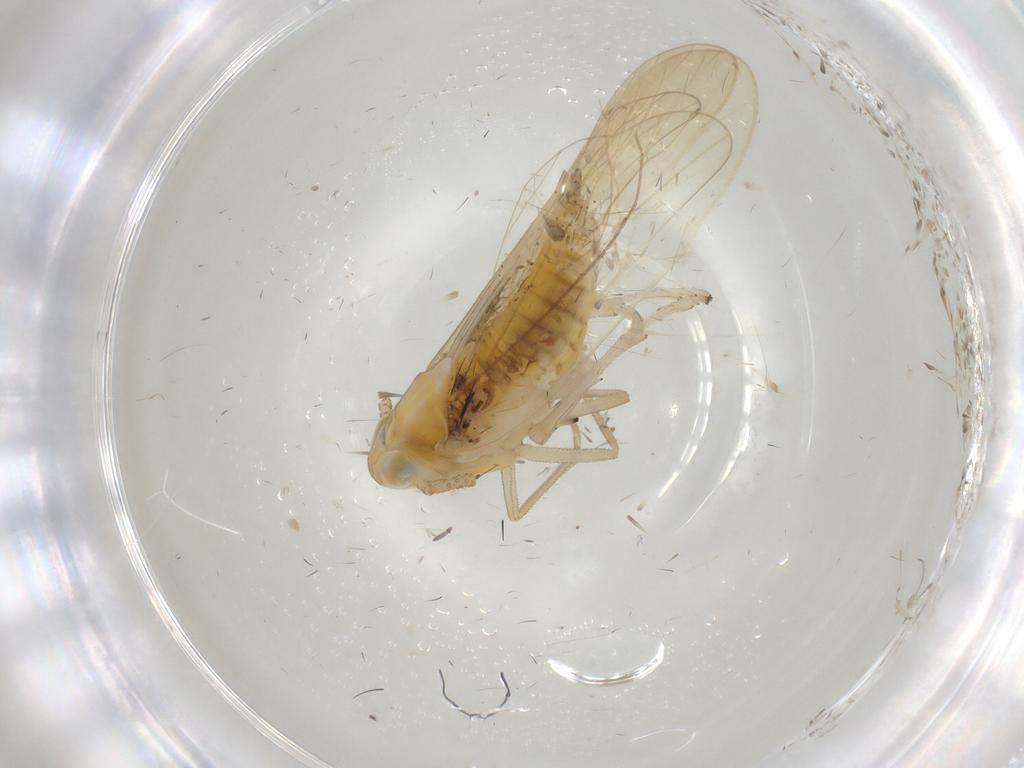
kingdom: Animalia
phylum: Arthropoda
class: Insecta
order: Hemiptera
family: Delphacidae
